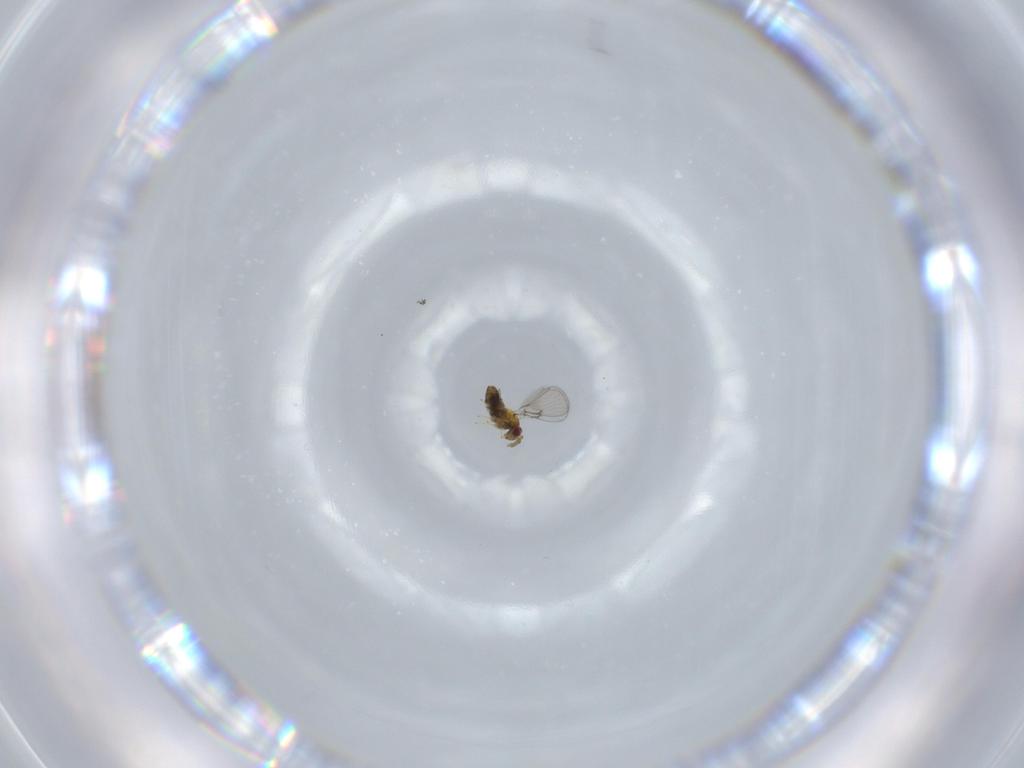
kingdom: Animalia
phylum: Arthropoda
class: Insecta
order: Hymenoptera
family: Trichogrammatidae
